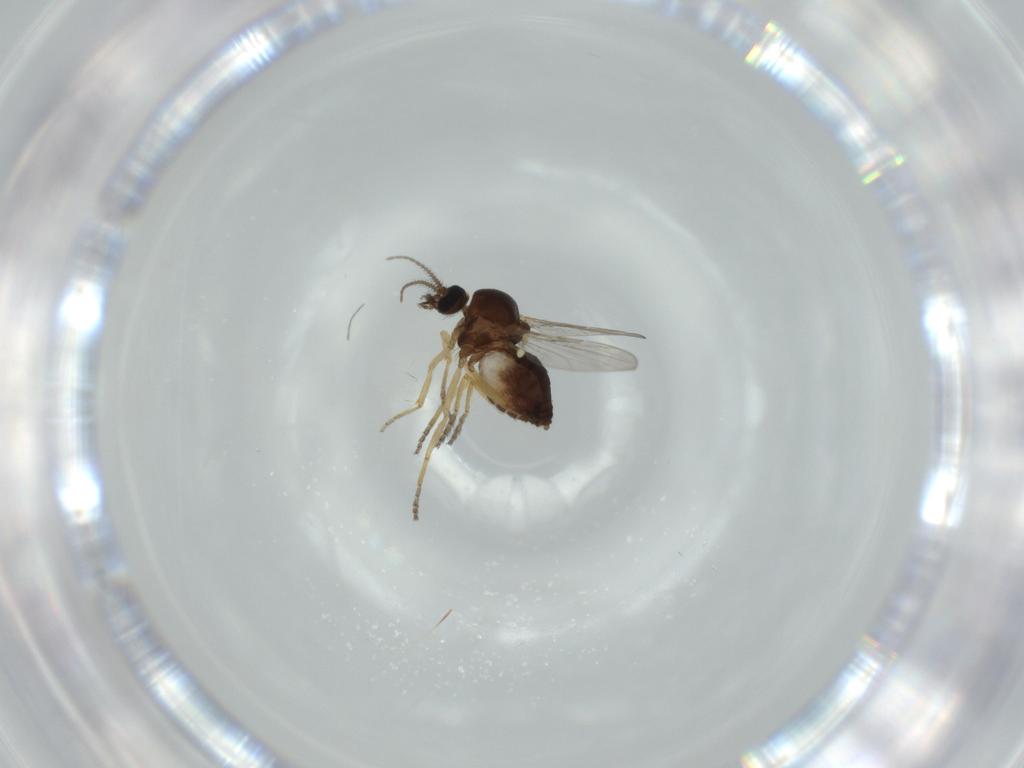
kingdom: Animalia
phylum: Arthropoda
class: Insecta
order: Diptera
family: Ceratopogonidae
